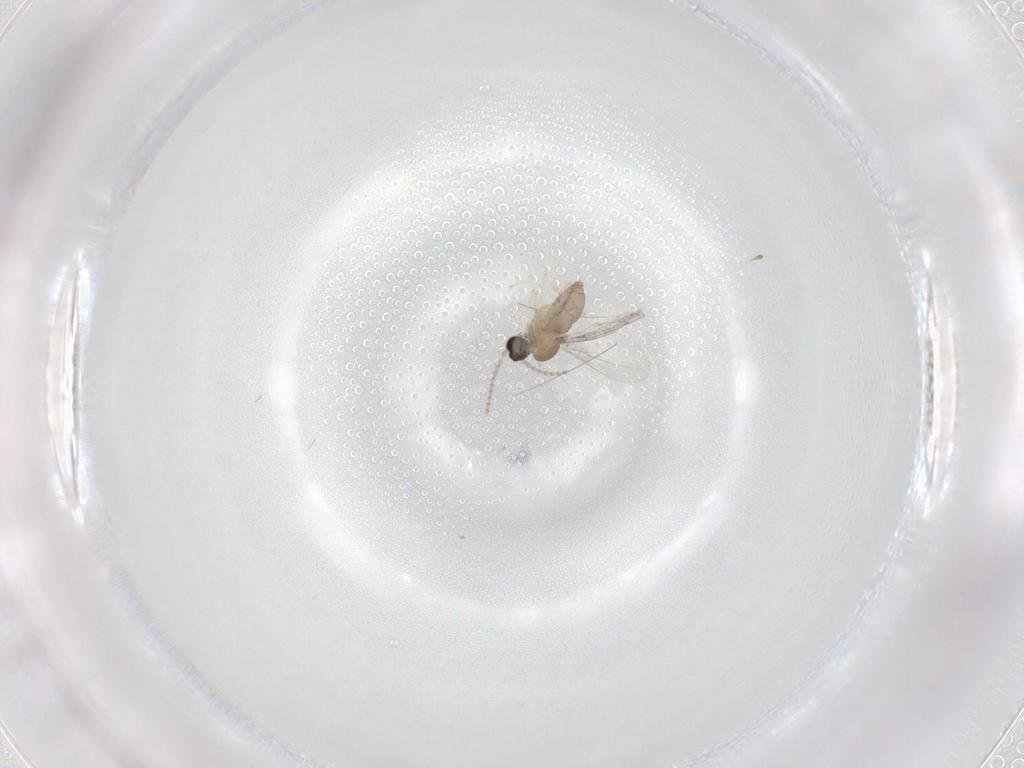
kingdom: Animalia
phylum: Arthropoda
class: Insecta
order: Diptera
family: Cecidomyiidae
